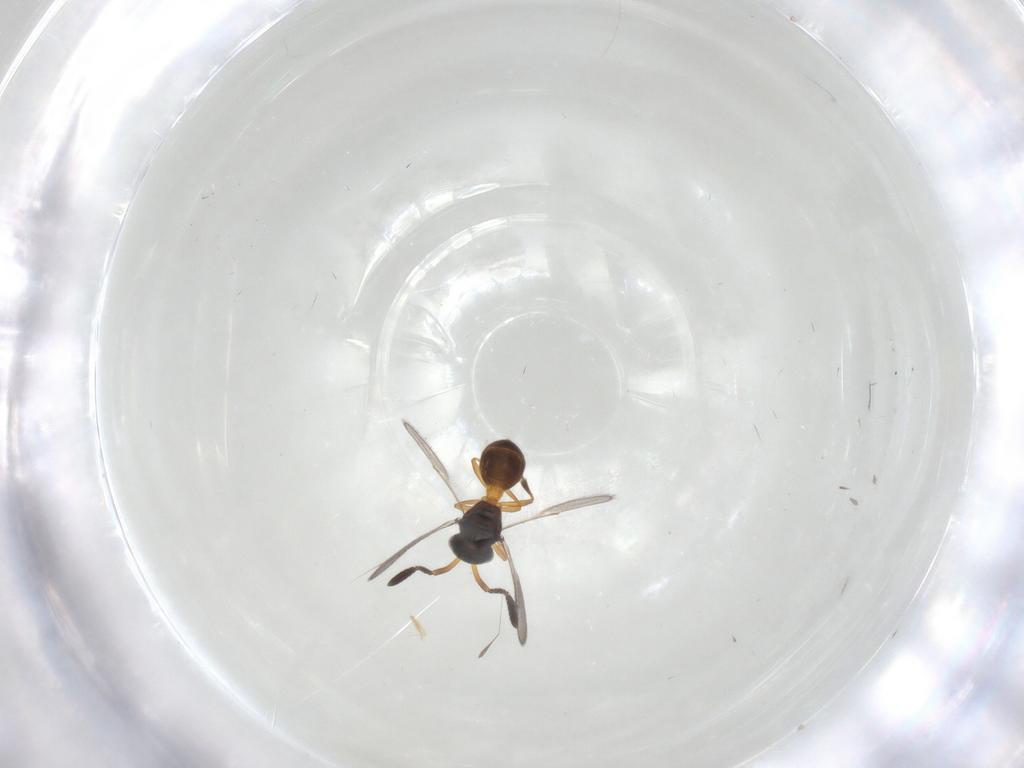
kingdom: Animalia
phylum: Arthropoda
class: Insecta
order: Hymenoptera
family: Scelionidae
